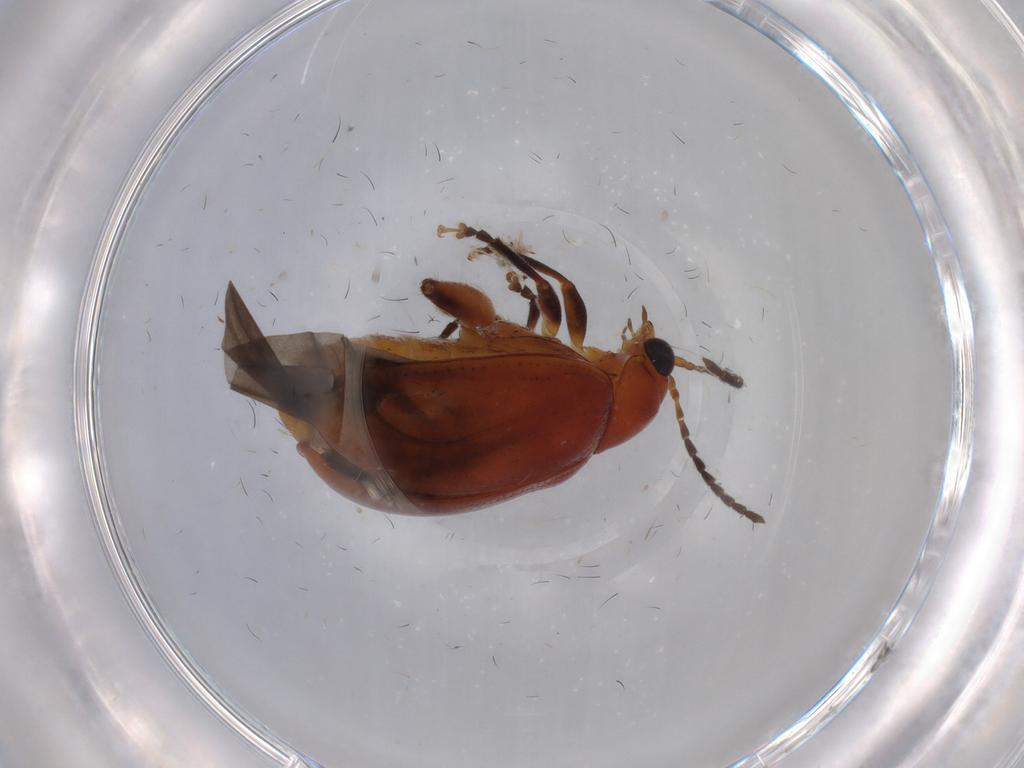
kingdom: Animalia
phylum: Arthropoda
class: Insecta
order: Coleoptera
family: Chrysomelidae
